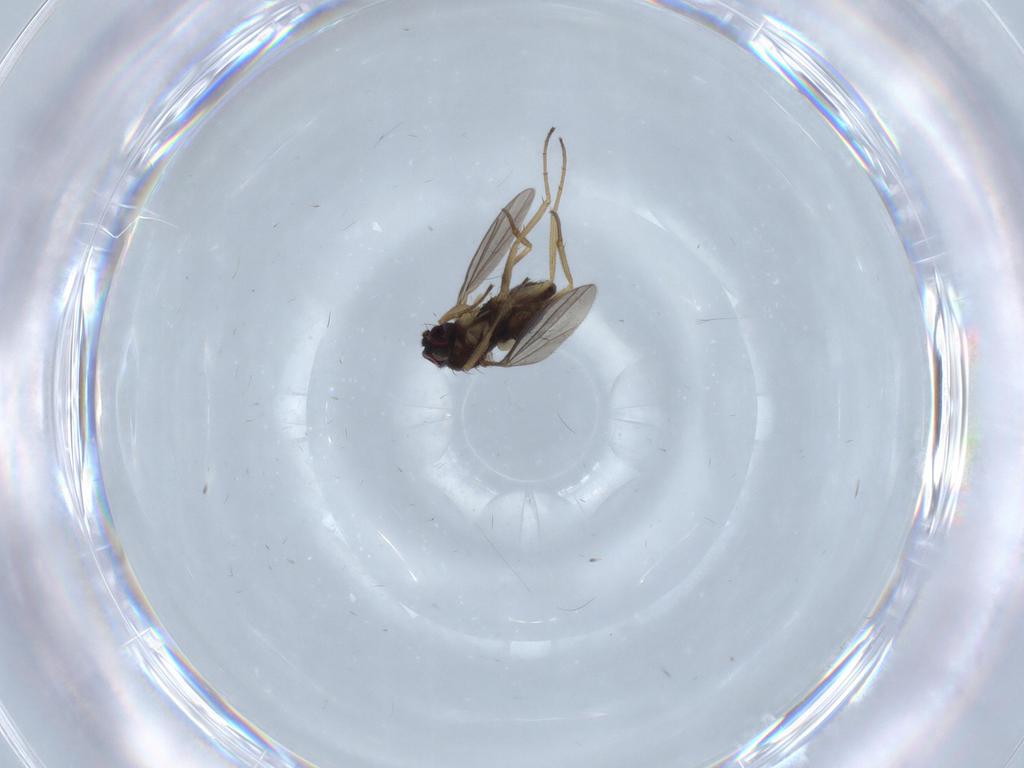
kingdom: Animalia
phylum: Arthropoda
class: Insecta
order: Diptera
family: Dolichopodidae
